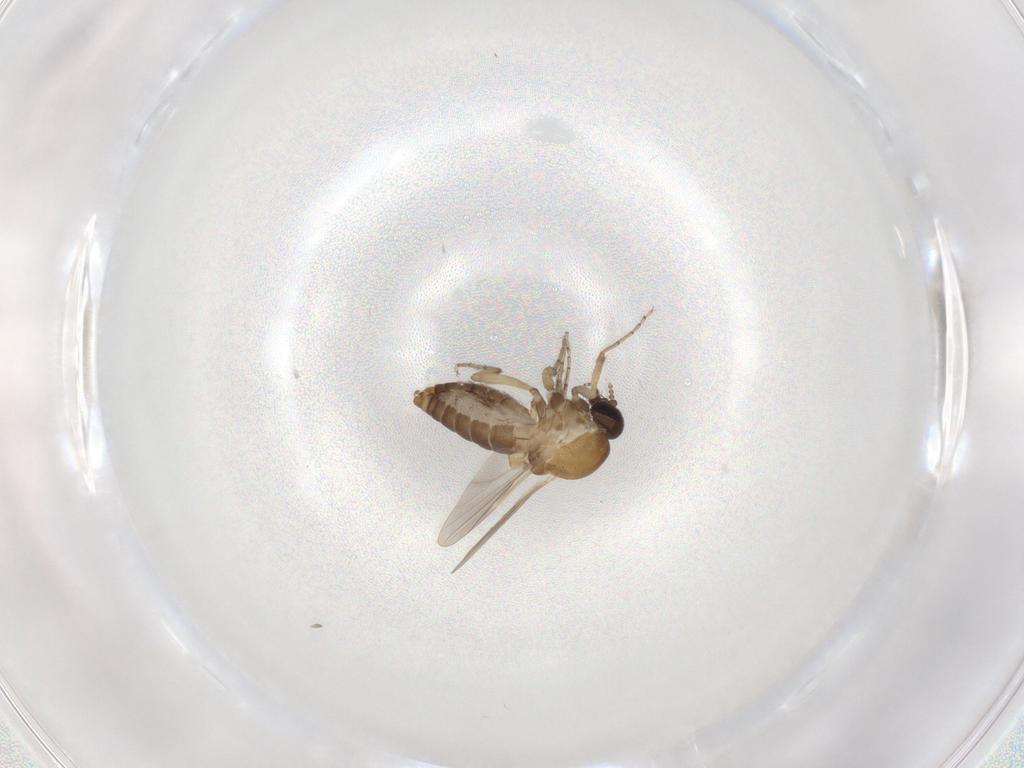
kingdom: Animalia
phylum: Arthropoda
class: Insecta
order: Diptera
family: Ceratopogonidae
